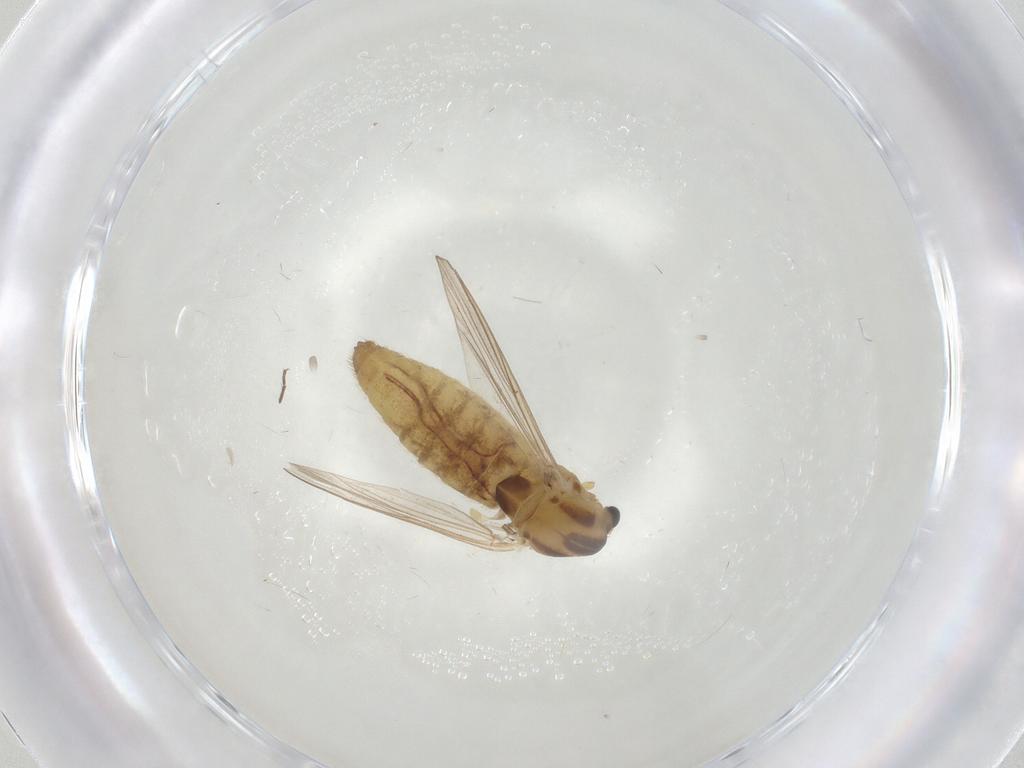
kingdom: Animalia
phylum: Arthropoda
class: Insecta
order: Diptera
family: Chironomidae
